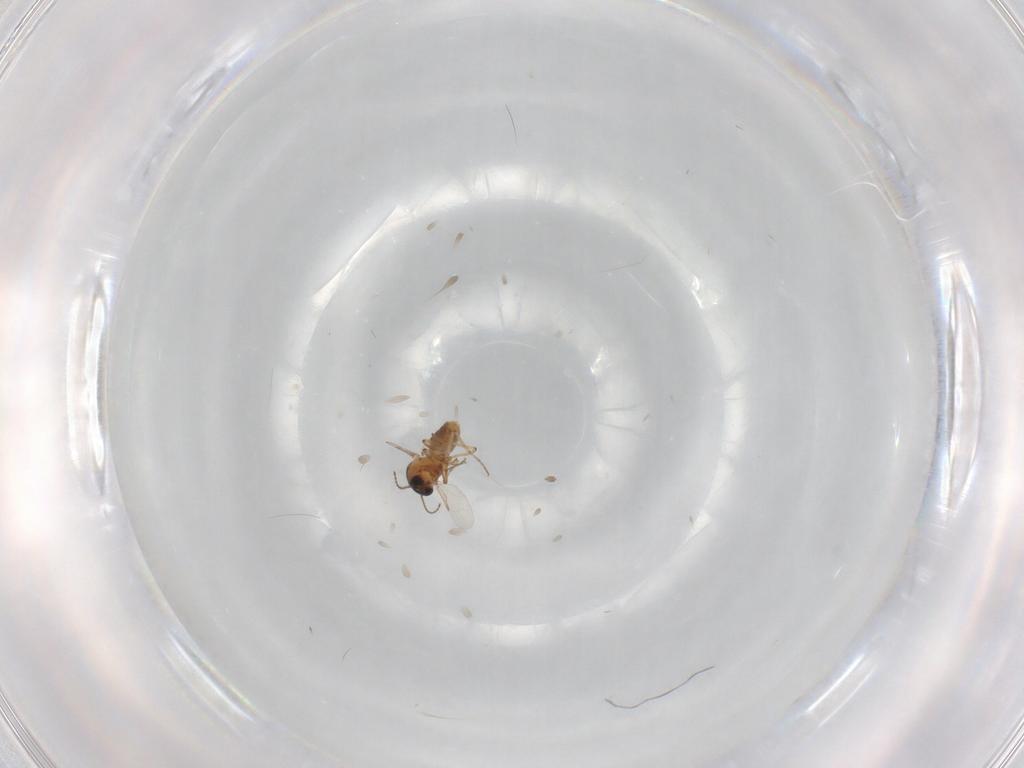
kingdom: Animalia
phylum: Arthropoda
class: Insecta
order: Diptera
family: Ceratopogonidae
